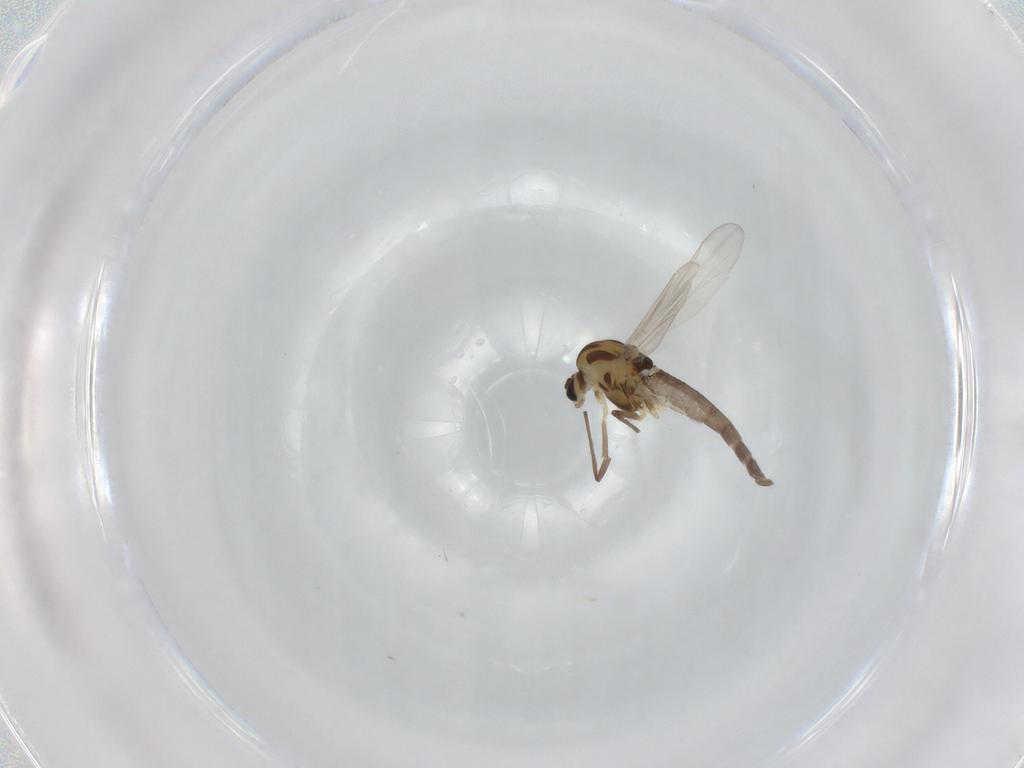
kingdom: Animalia
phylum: Arthropoda
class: Insecta
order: Diptera
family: Chironomidae
